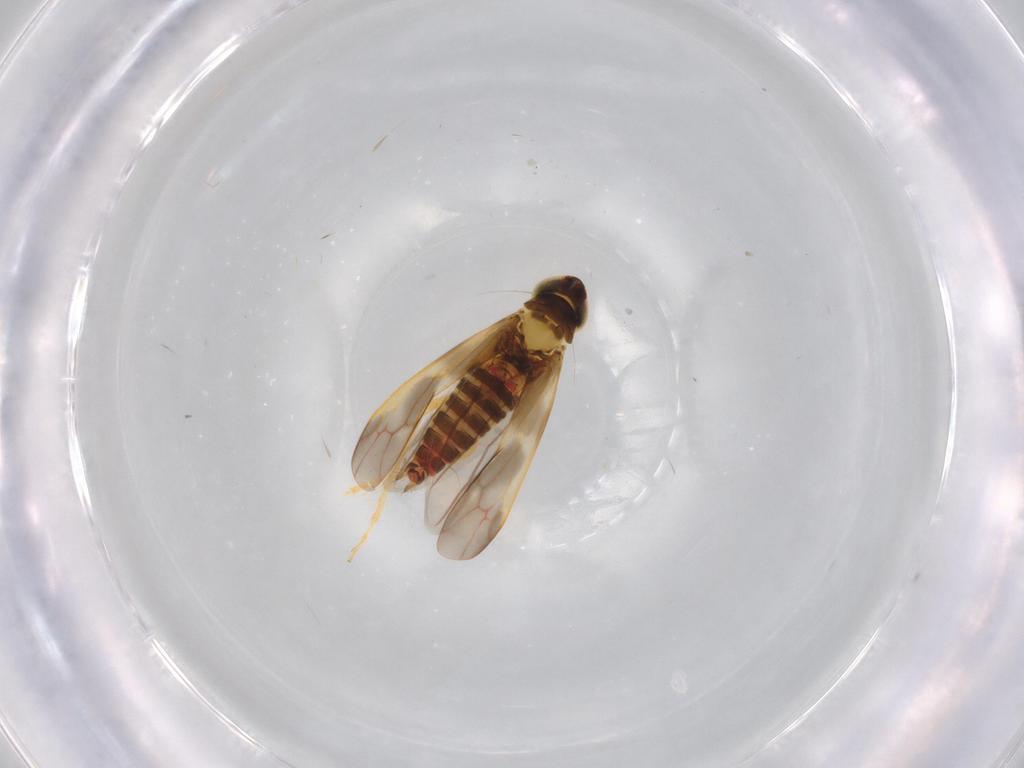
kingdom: Animalia
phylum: Arthropoda
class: Insecta
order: Hemiptera
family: Cicadellidae
